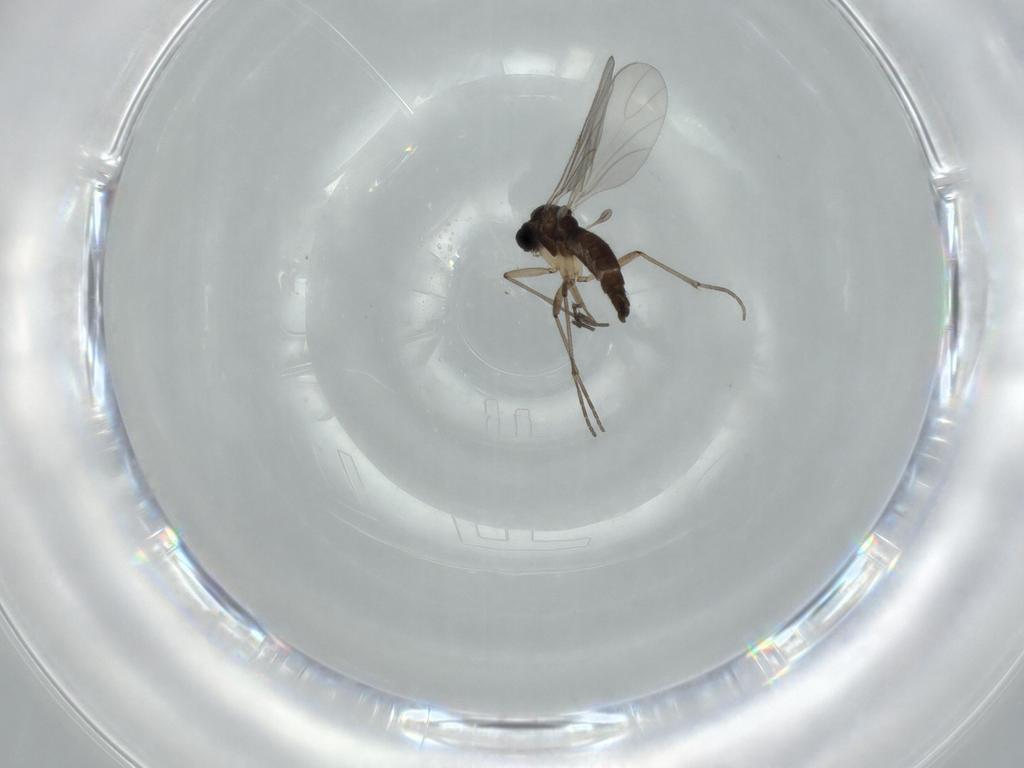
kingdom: Animalia
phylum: Arthropoda
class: Insecta
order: Diptera
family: Sciaridae
